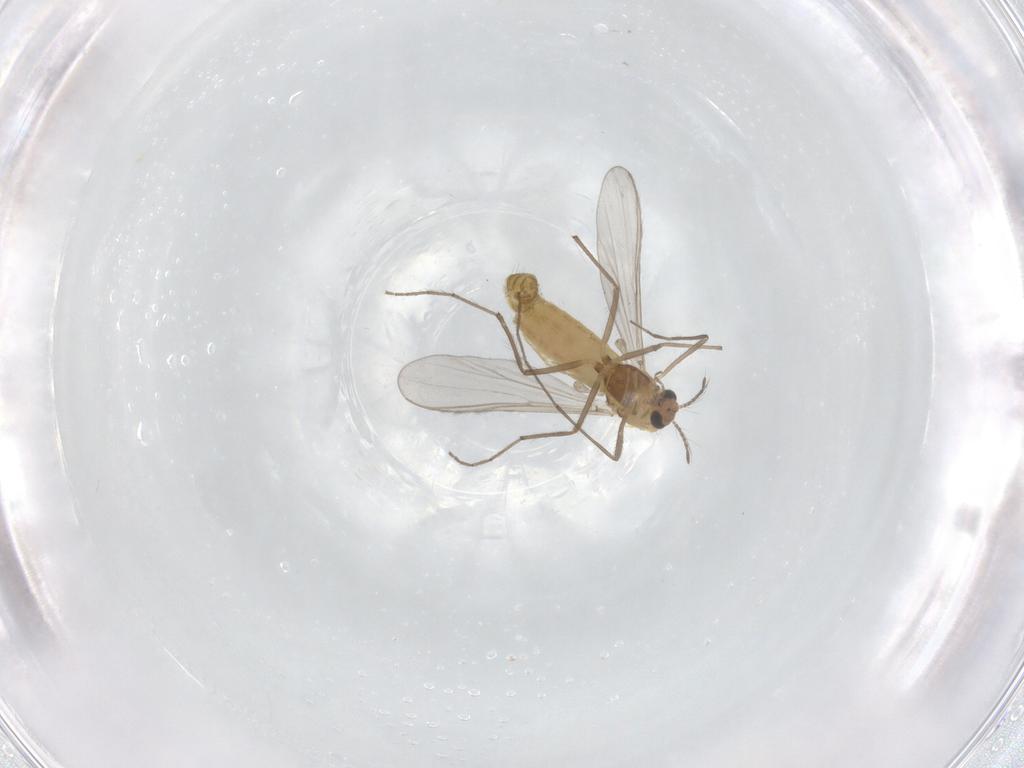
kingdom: Animalia
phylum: Arthropoda
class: Insecta
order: Diptera
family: Chironomidae
